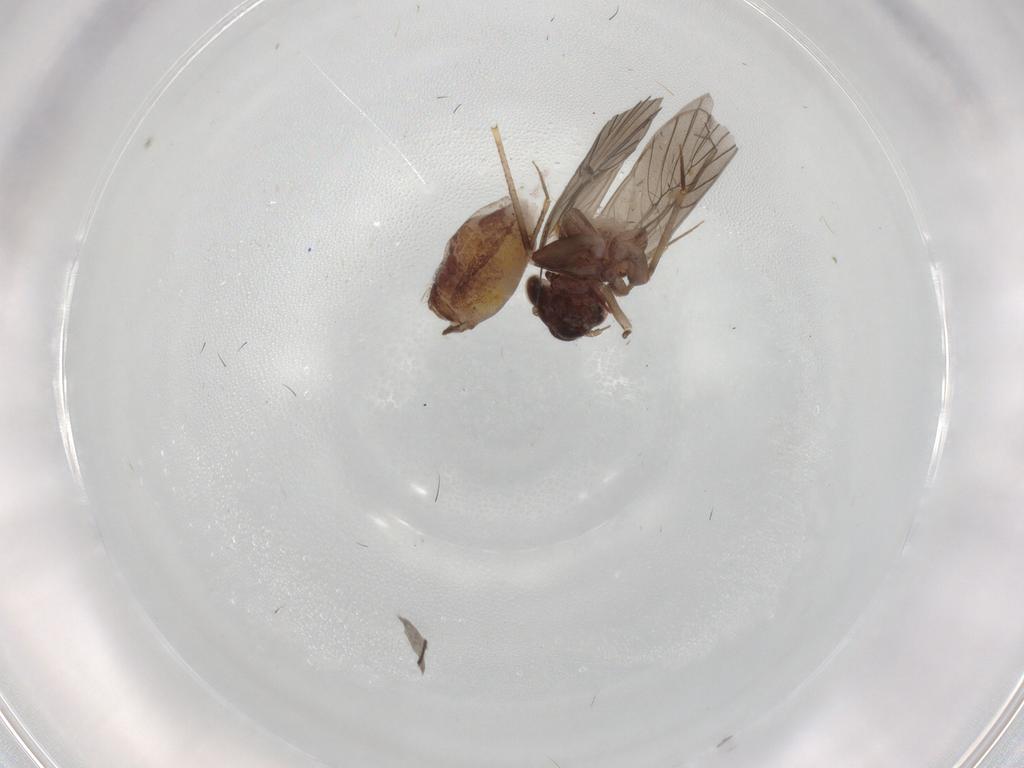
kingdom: Animalia
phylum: Arthropoda
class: Insecta
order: Psocodea
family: Lepidopsocidae
